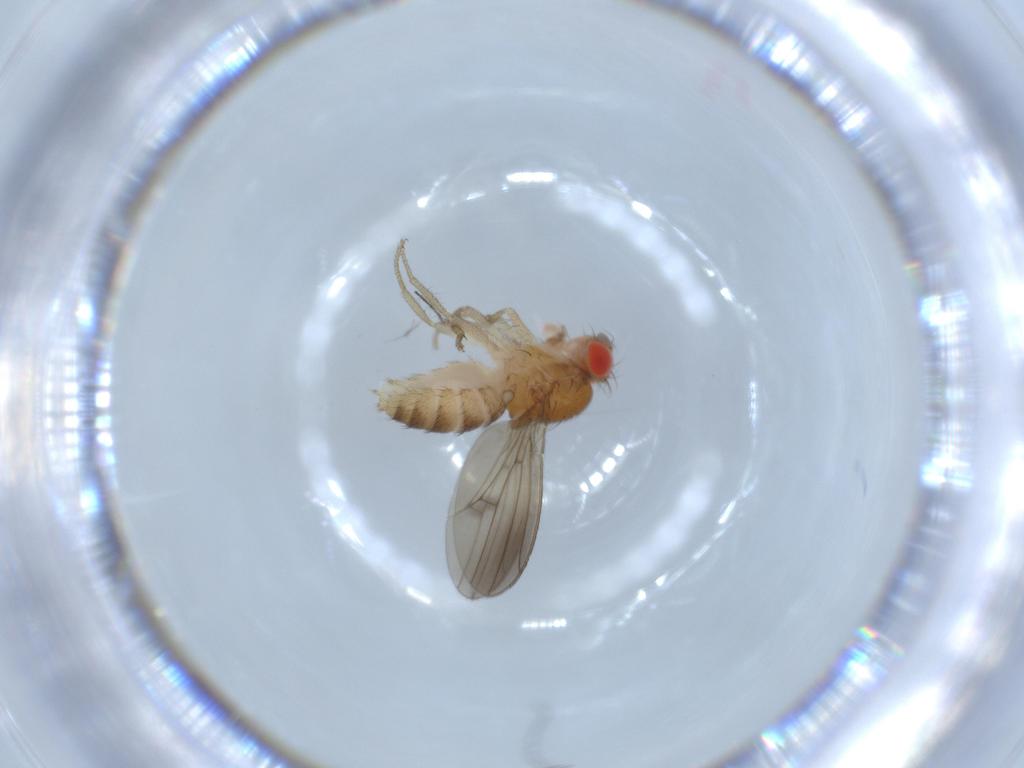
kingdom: Animalia
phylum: Arthropoda
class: Insecta
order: Diptera
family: Drosophilidae
